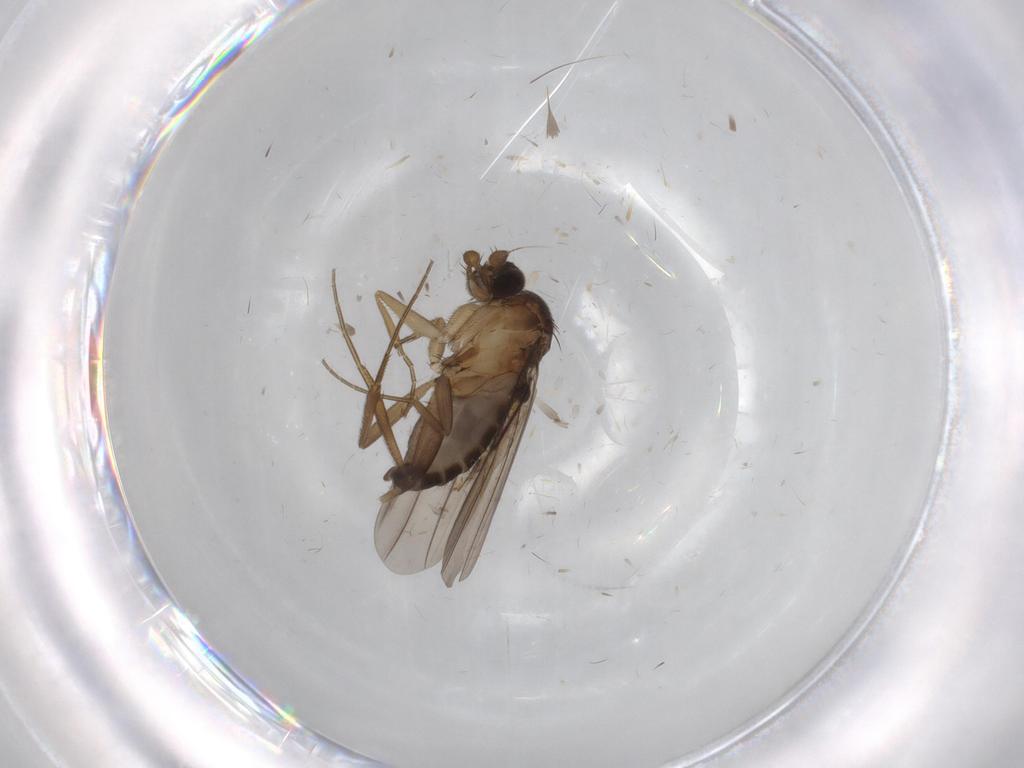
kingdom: Animalia
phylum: Arthropoda
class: Insecta
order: Diptera
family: Phoridae
